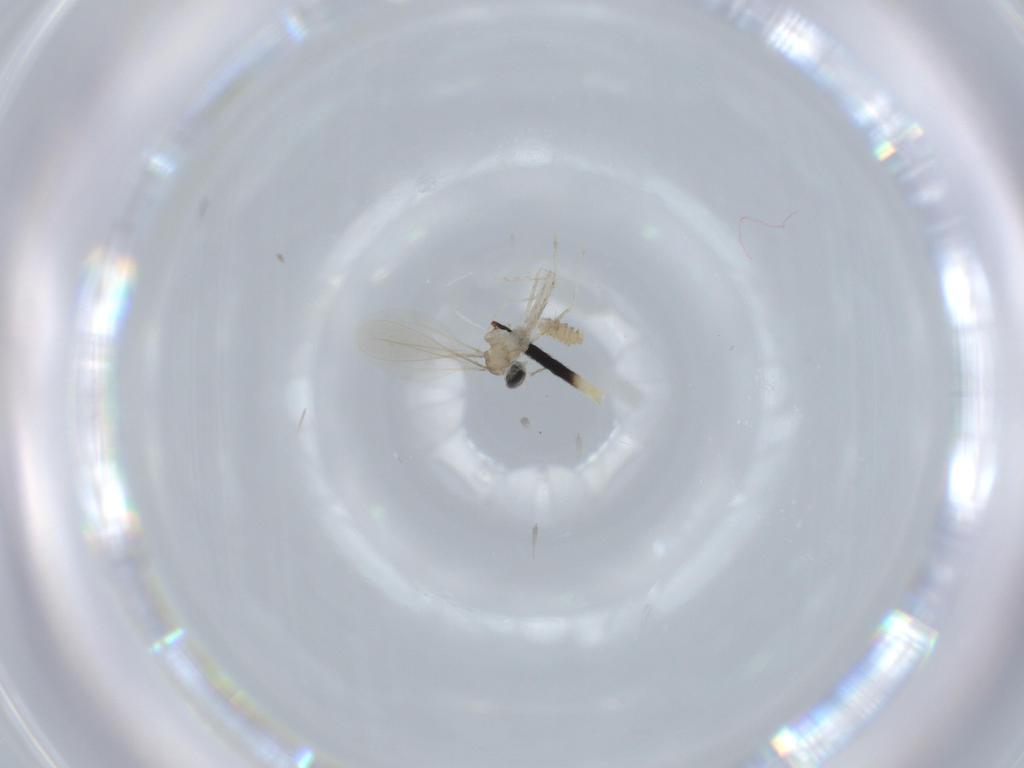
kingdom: Animalia
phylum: Arthropoda
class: Insecta
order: Diptera
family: Cecidomyiidae
